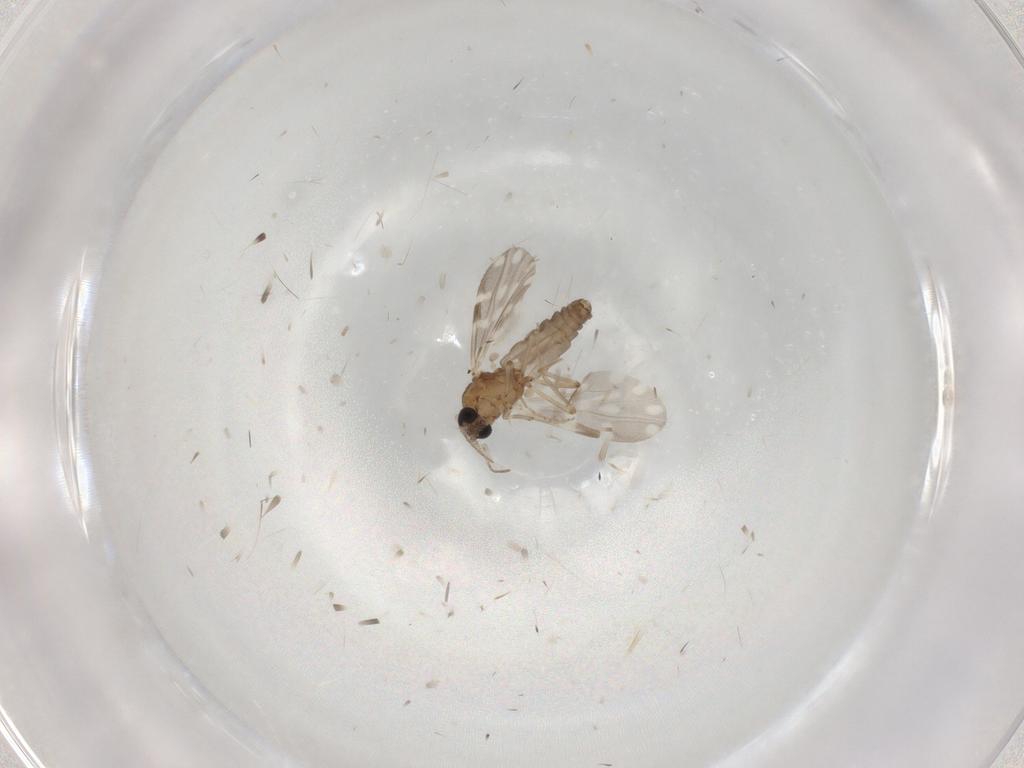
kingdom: Animalia
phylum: Arthropoda
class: Insecta
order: Diptera
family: Ceratopogonidae
